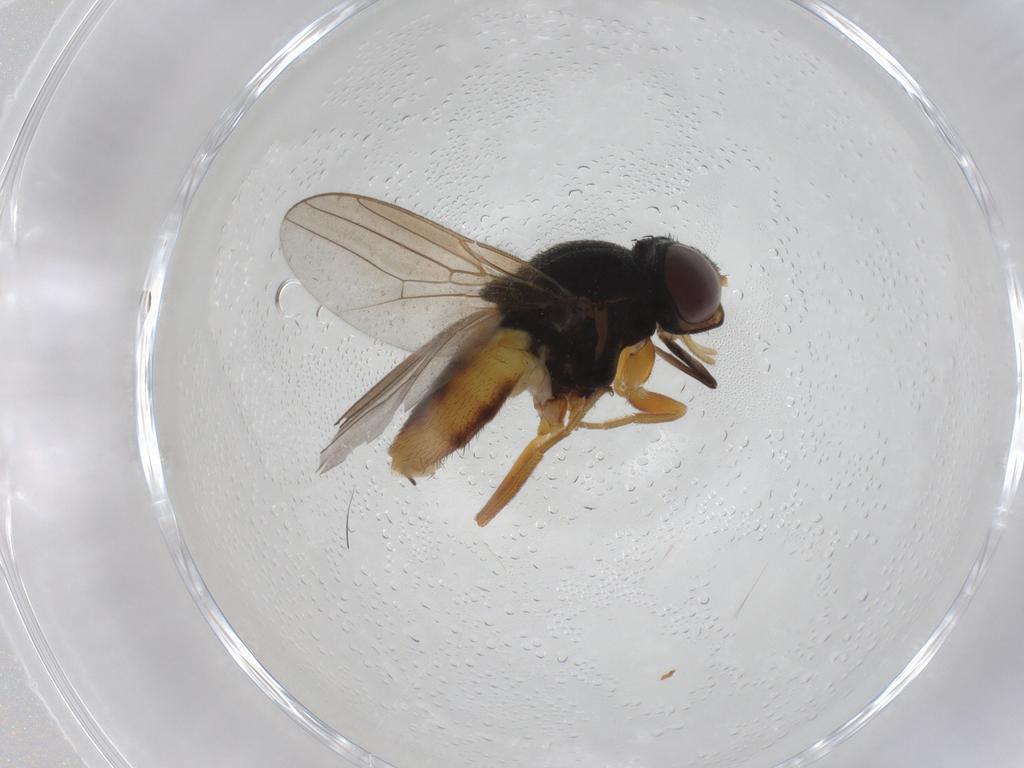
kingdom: Animalia
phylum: Arthropoda
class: Insecta
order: Diptera
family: Chloropidae
